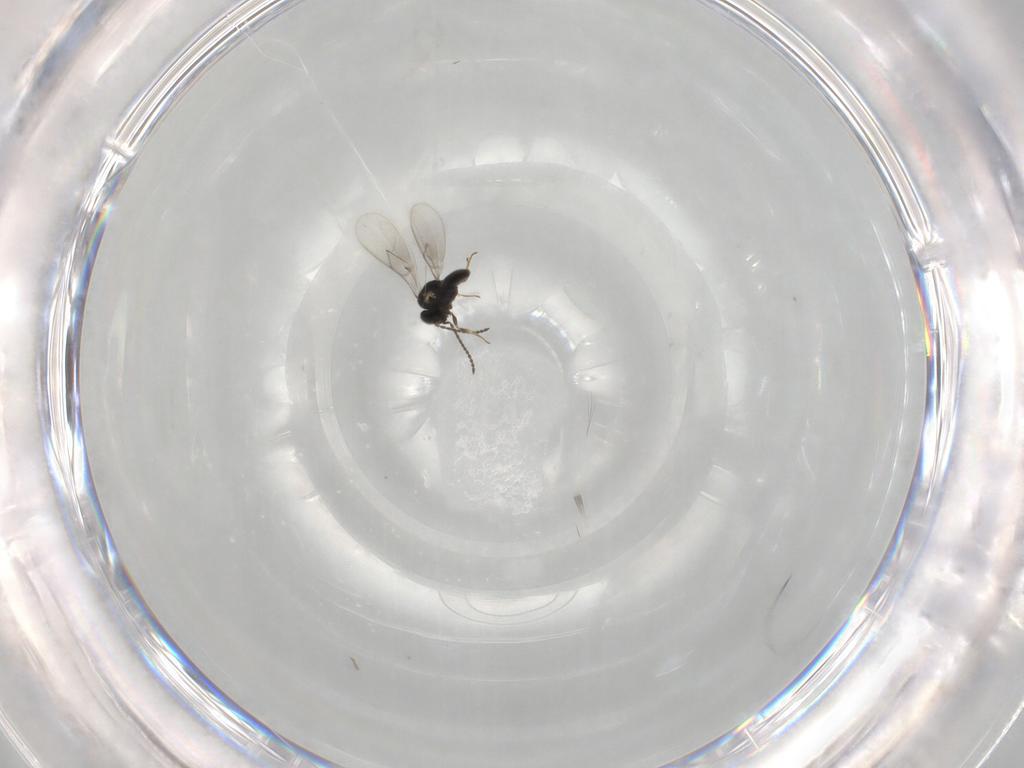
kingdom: Animalia
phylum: Arthropoda
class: Insecta
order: Hymenoptera
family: Scelionidae
